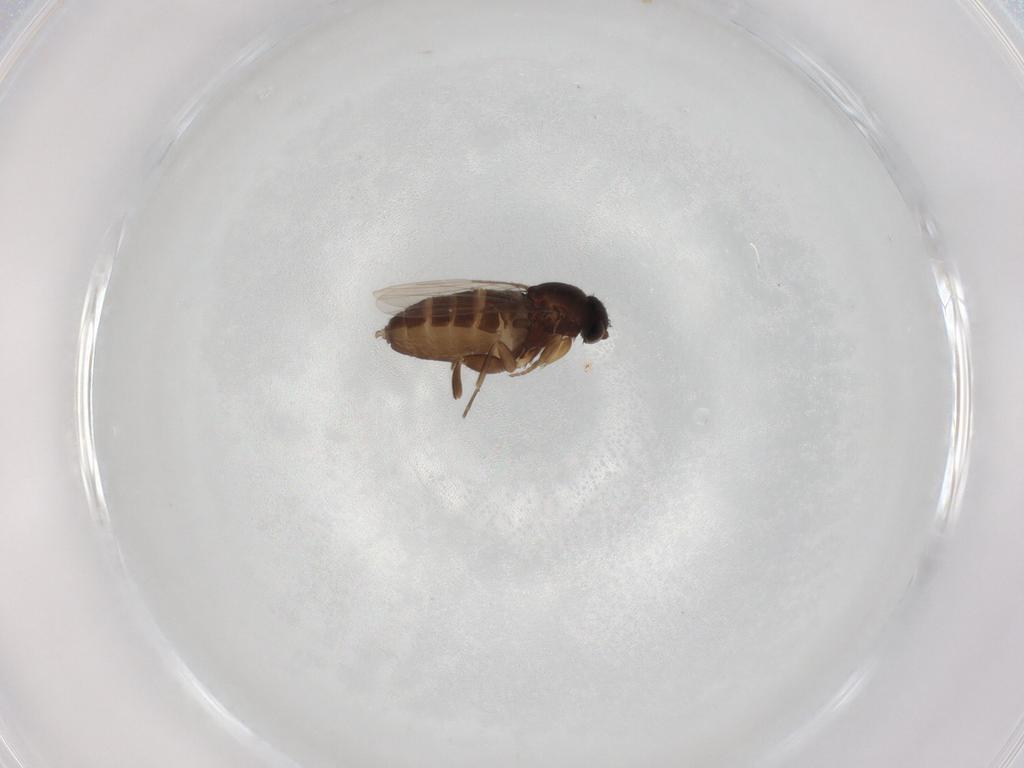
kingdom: Animalia
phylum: Arthropoda
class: Insecta
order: Diptera
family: Phoridae
